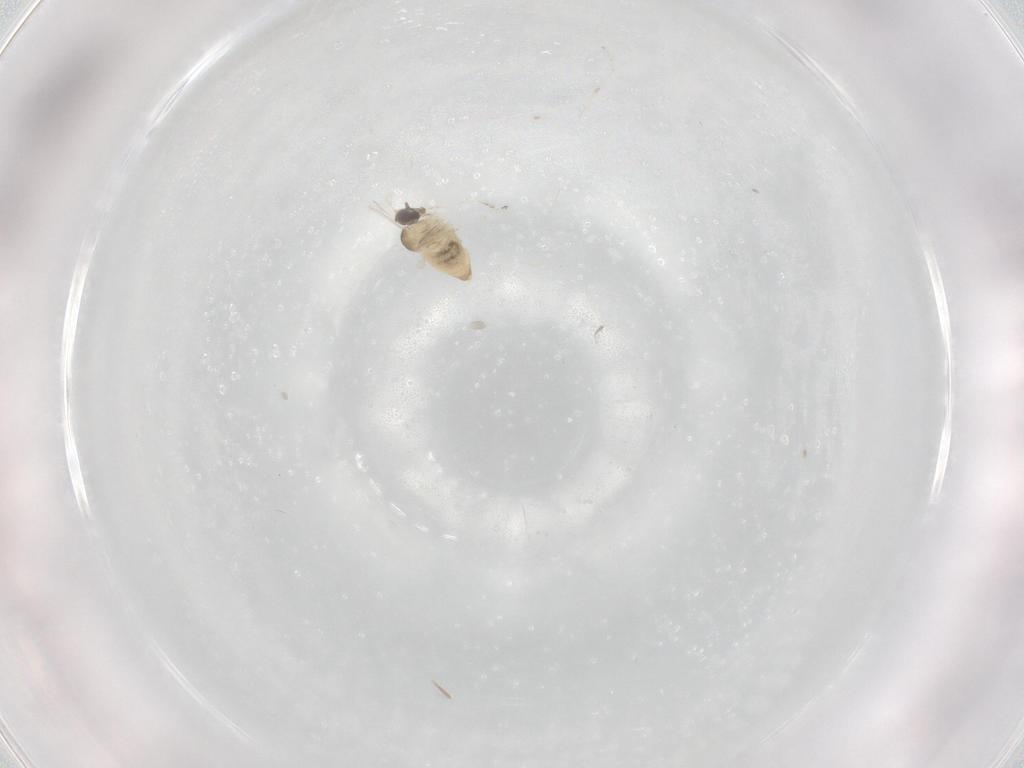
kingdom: Animalia
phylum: Arthropoda
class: Insecta
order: Diptera
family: Cecidomyiidae
